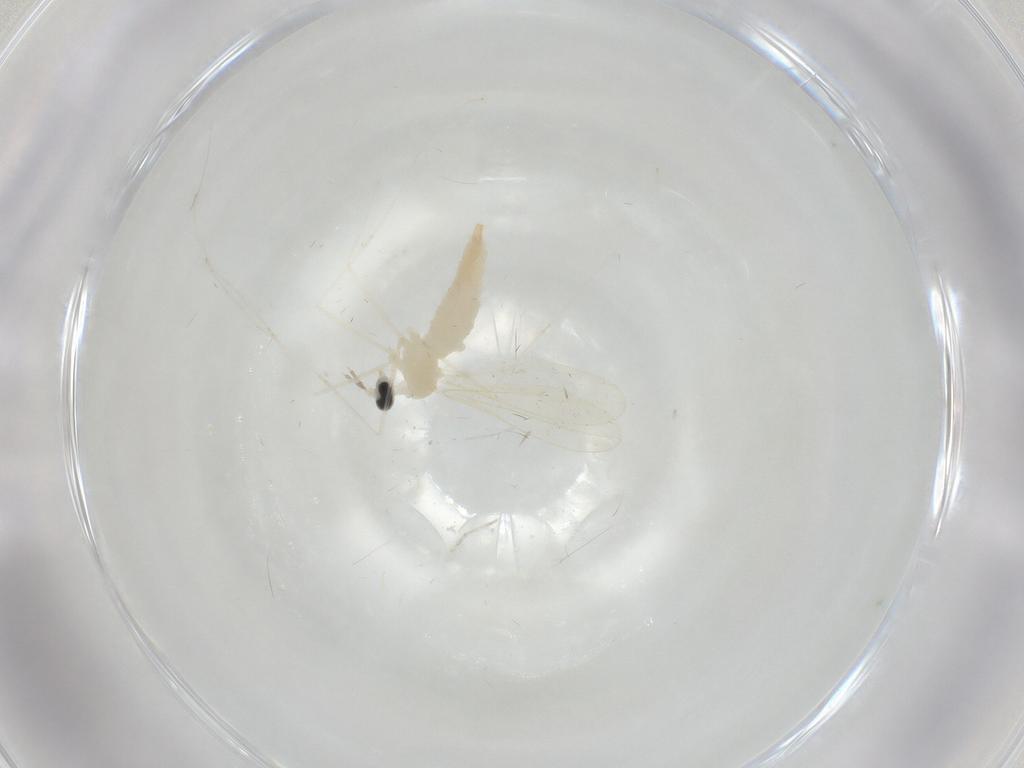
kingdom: Animalia
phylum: Arthropoda
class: Insecta
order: Diptera
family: Cecidomyiidae
